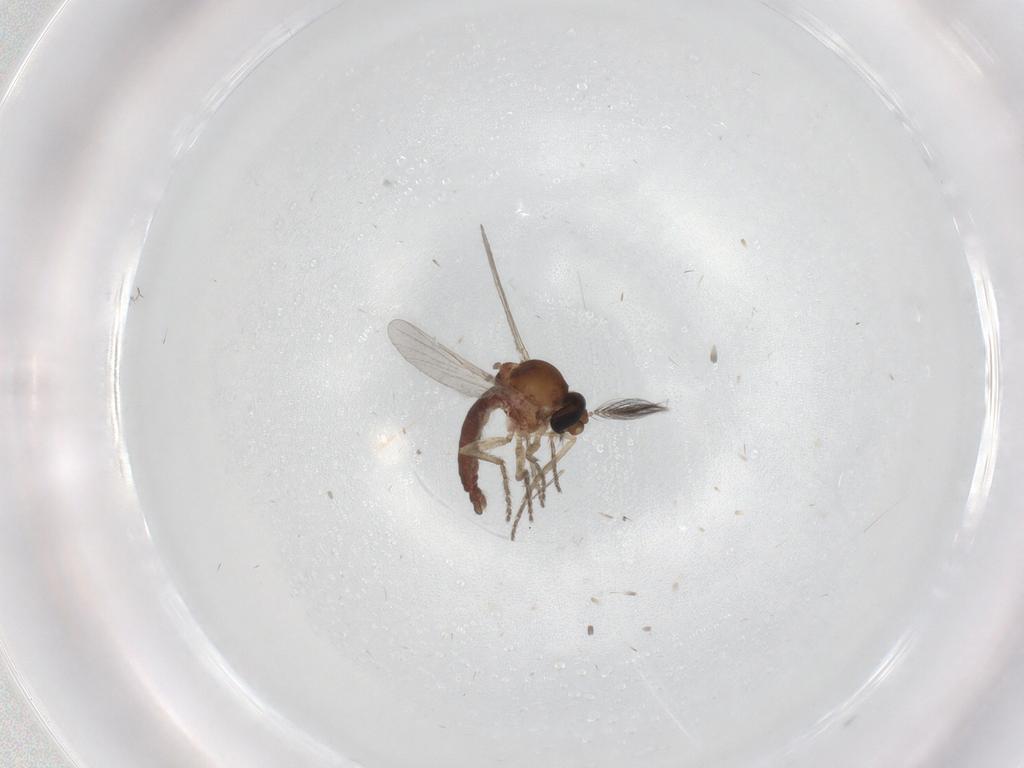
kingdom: Animalia
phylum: Arthropoda
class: Insecta
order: Diptera
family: Ceratopogonidae
